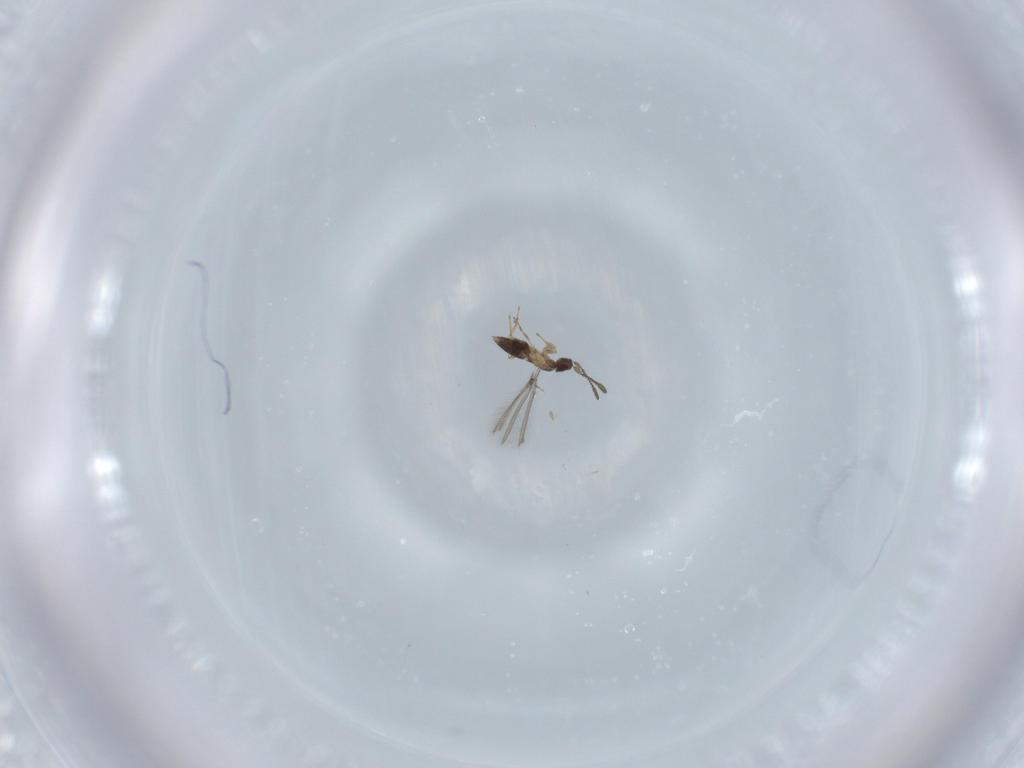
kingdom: Animalia
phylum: Arthropoda
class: Insecta
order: Hymenoptera
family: Mymaridae
